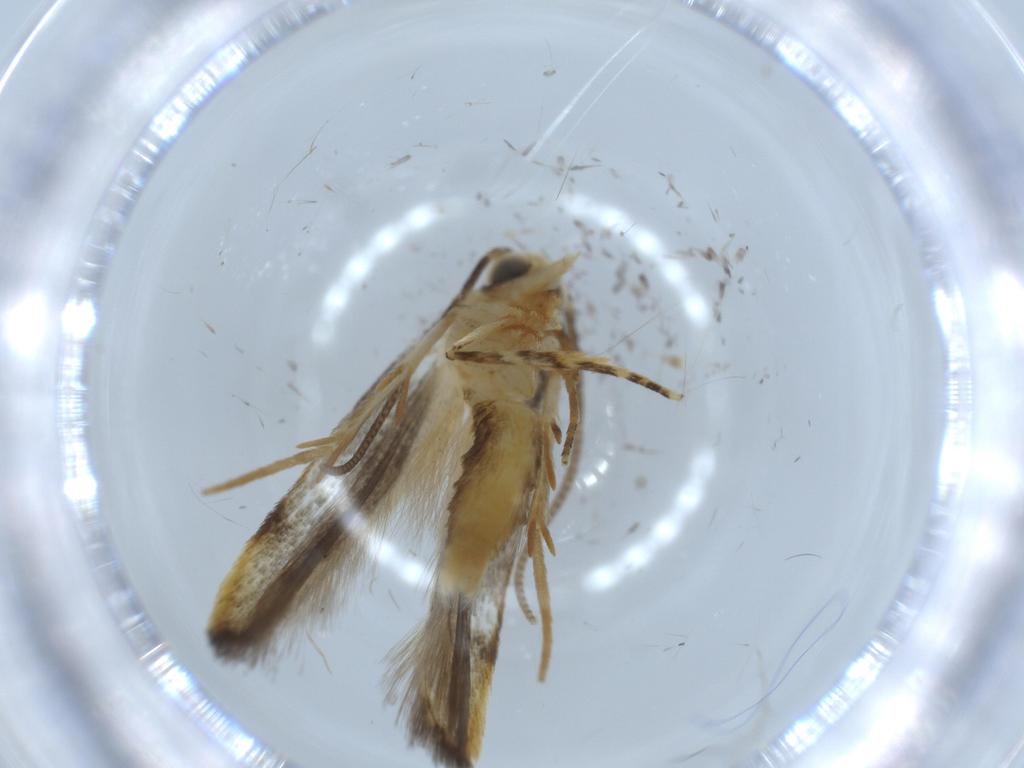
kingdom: Animalia
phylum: Arthropoda
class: Insecta
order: Lepidoptera
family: Autostichidae
